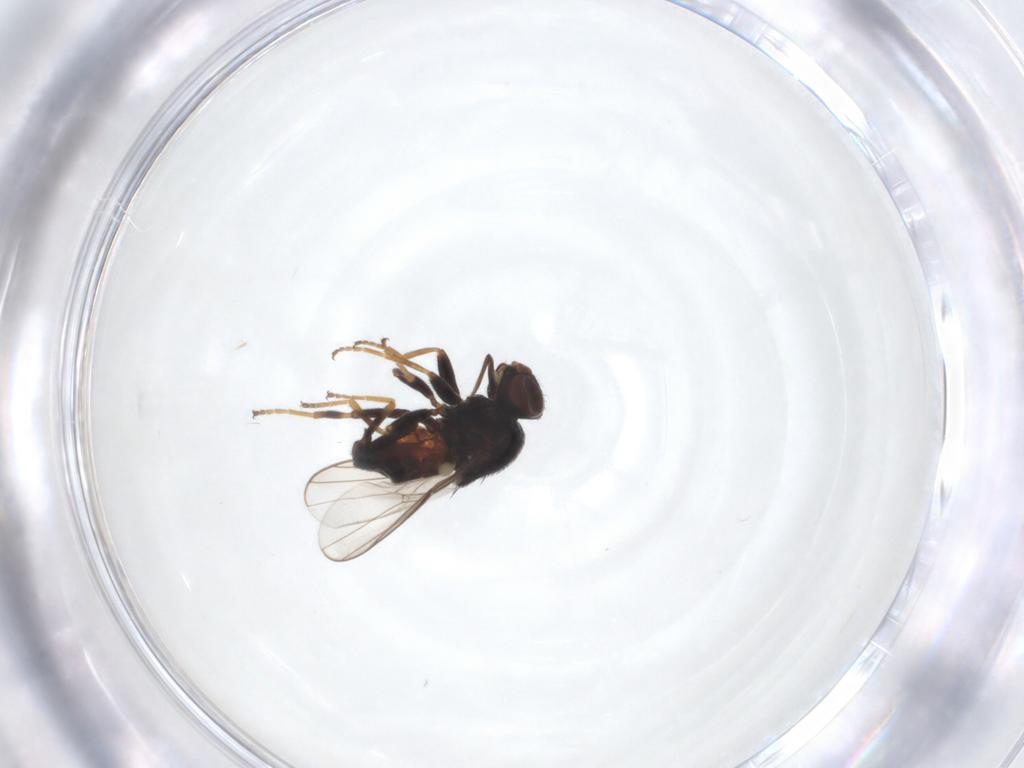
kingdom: Animalia
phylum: Arthropoda
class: Insecta
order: Diptera
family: Chloropidae
